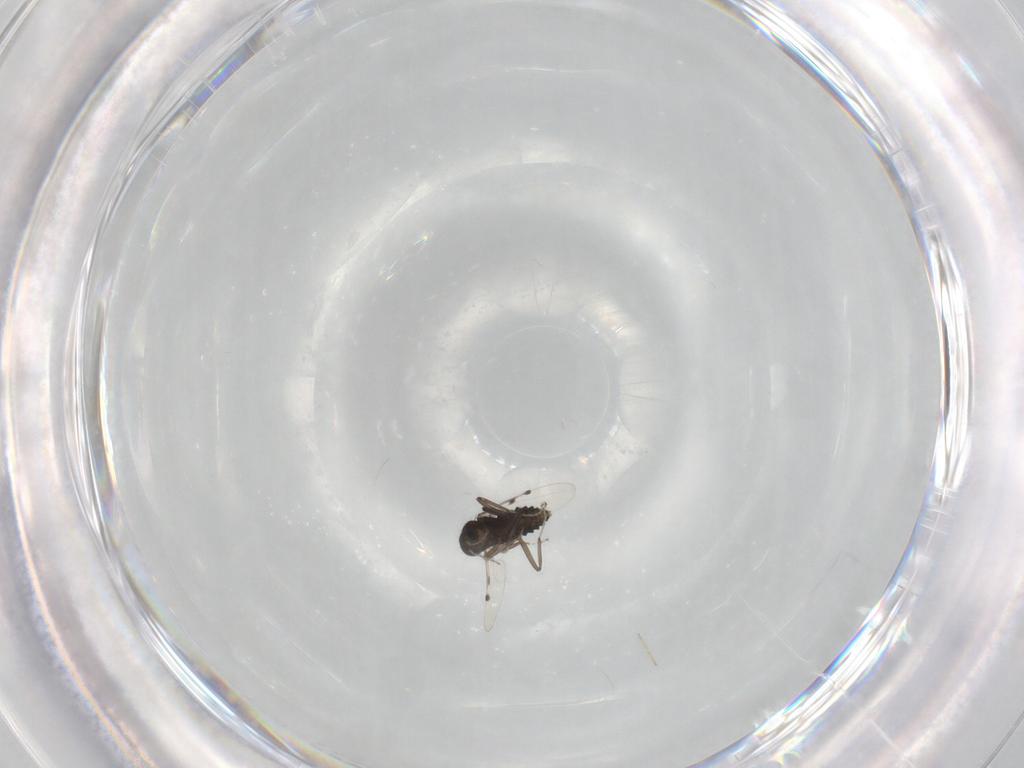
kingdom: Animalia
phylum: Arthropoda
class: Insecta
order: Diptera
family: Ceratopogonidae
